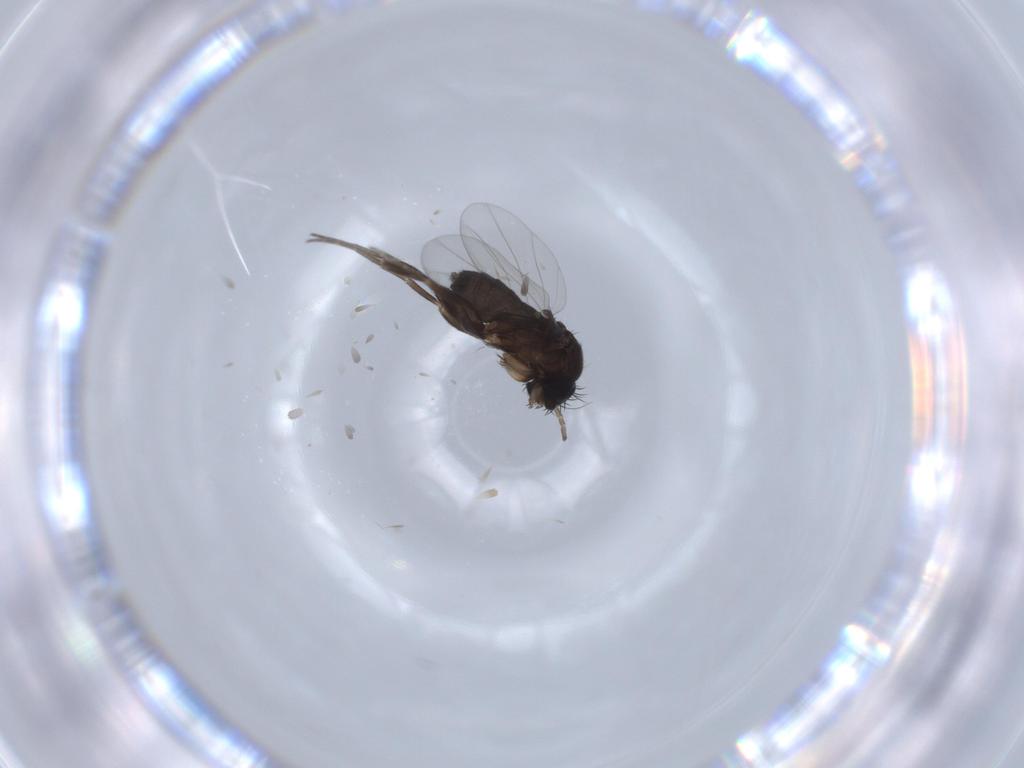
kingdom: Animalia
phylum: Arthropoda
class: Insecta
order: Diptera
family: Phoridae
